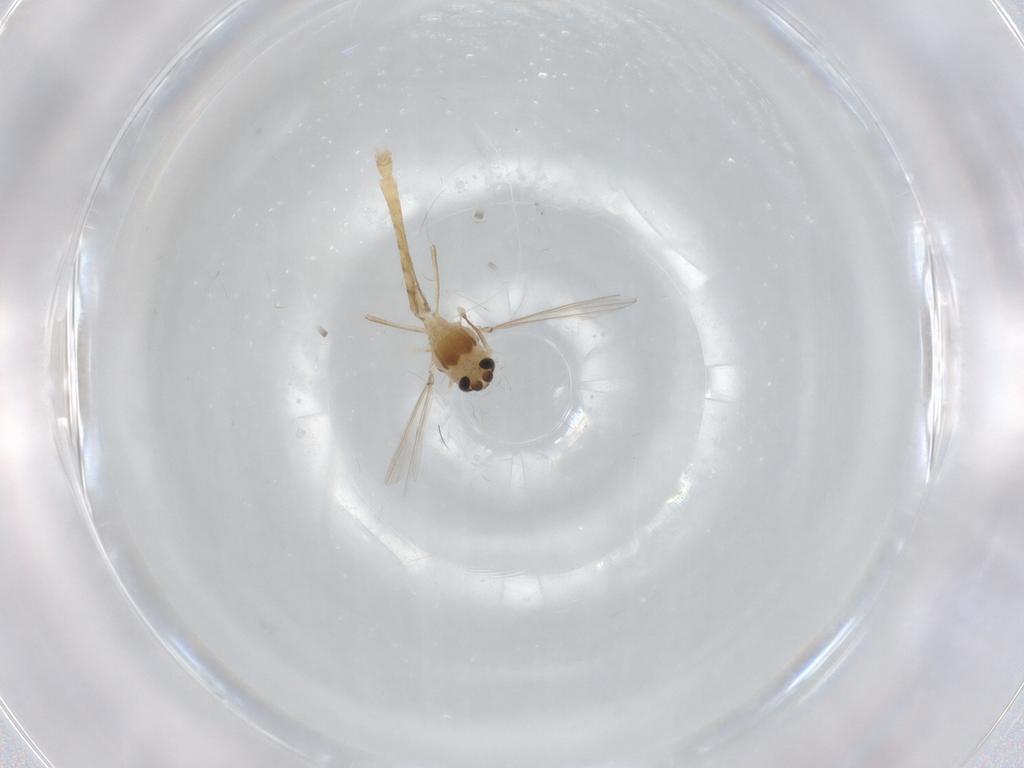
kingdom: Animalia
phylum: Arthropoda
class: Insecta
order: Diptera
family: Chironomidae
